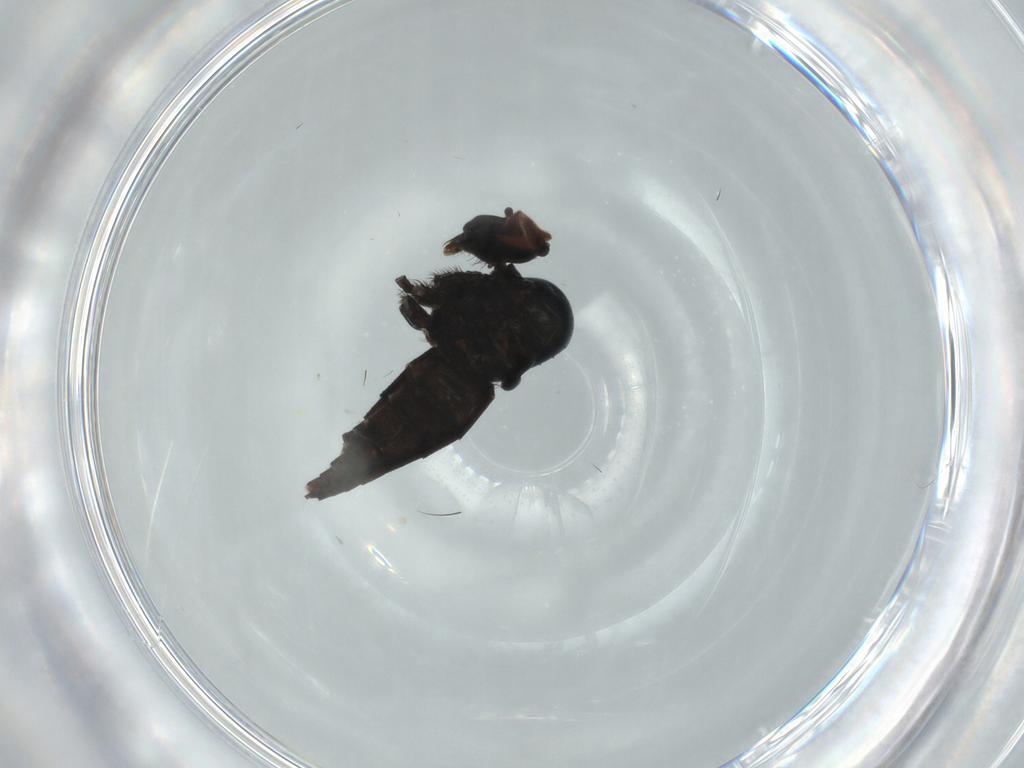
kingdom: Animalia
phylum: Arthropoda
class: Insecta
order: Diptera
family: Hybotidae
